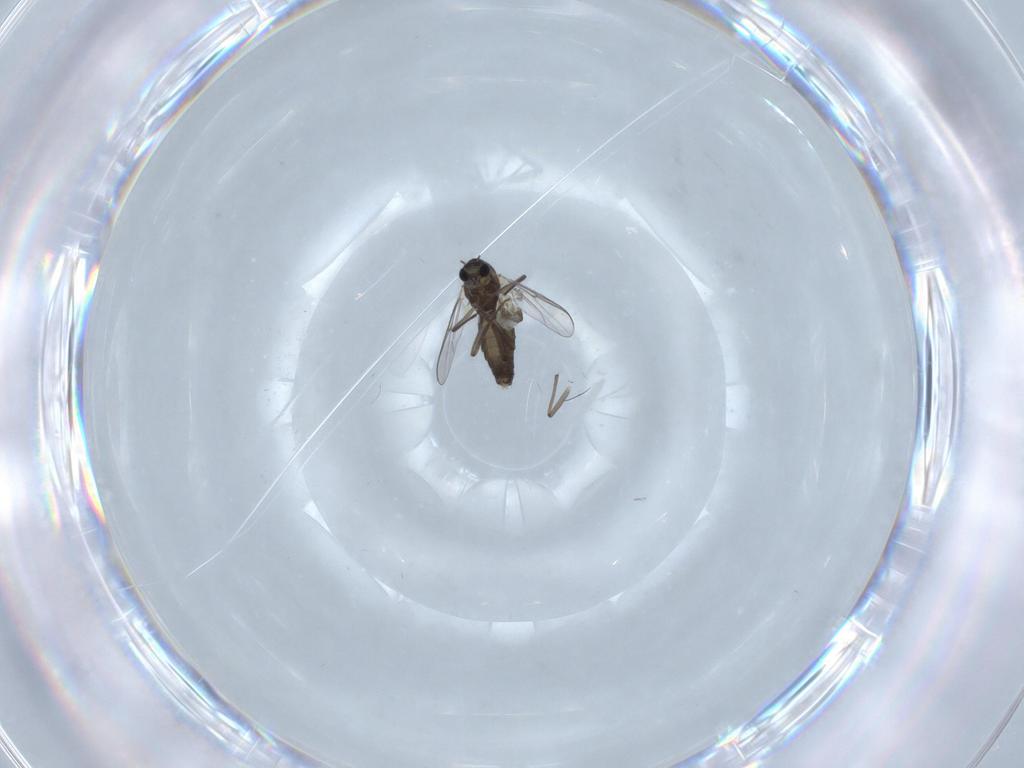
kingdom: Animalia
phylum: Arthropoda
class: Insecta
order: Diptera
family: Chironomidae
